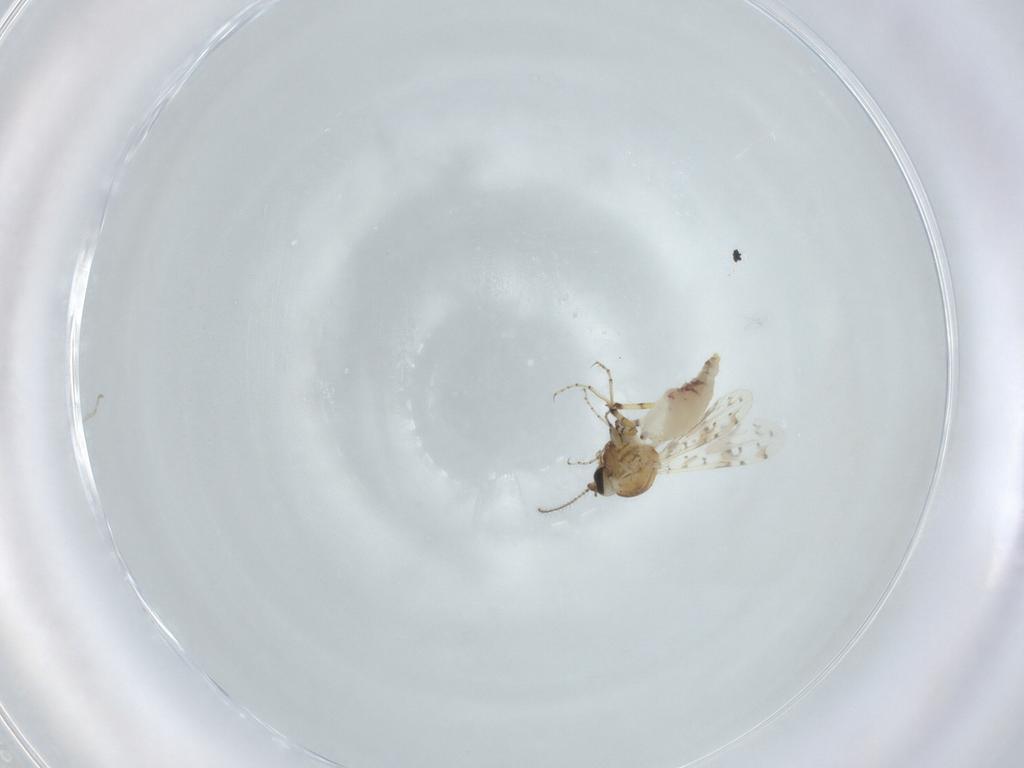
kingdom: Animalia
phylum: Arthropoda
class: Insecta
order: Diptera
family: Ceratopogonidae
